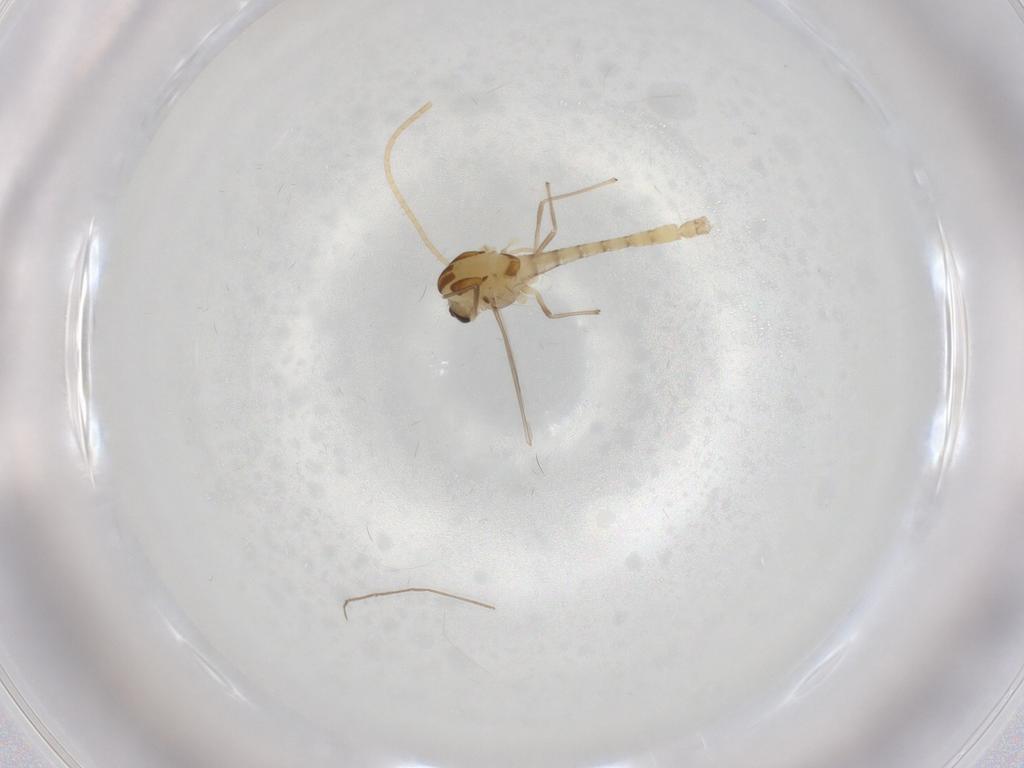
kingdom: Animalia
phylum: Arthropoda
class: Insecta
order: Diptera
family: Chironomidae
